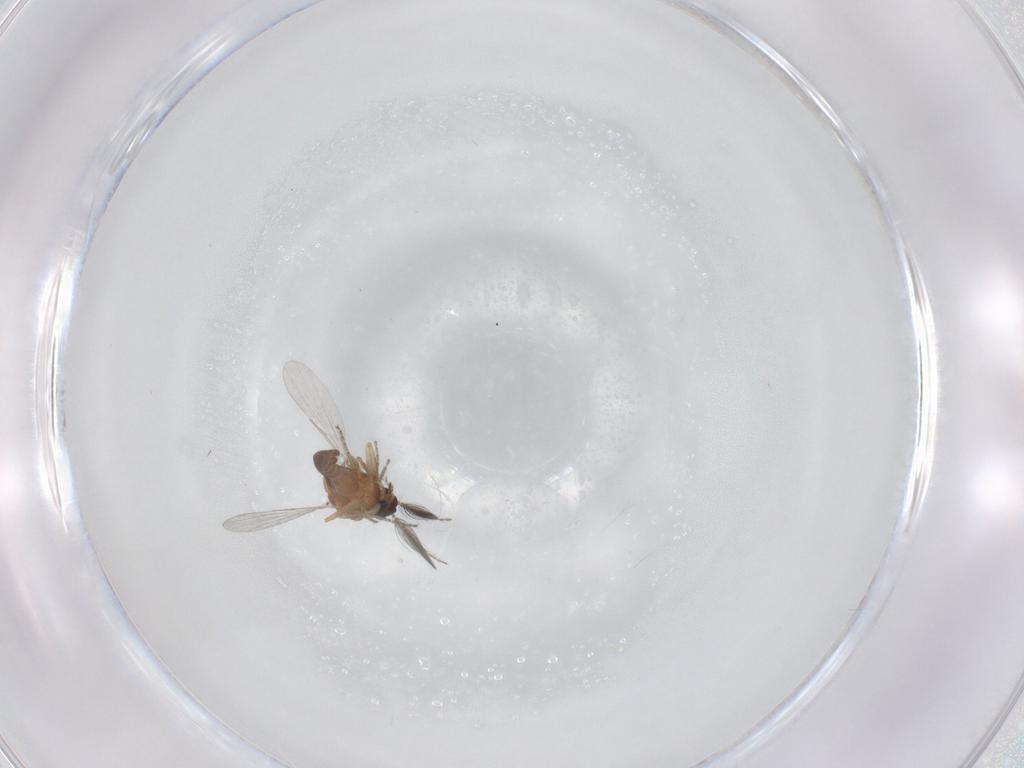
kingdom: Animalia
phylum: Arthropoda
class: Insecta
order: Diptera
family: Ceratopogonidae
